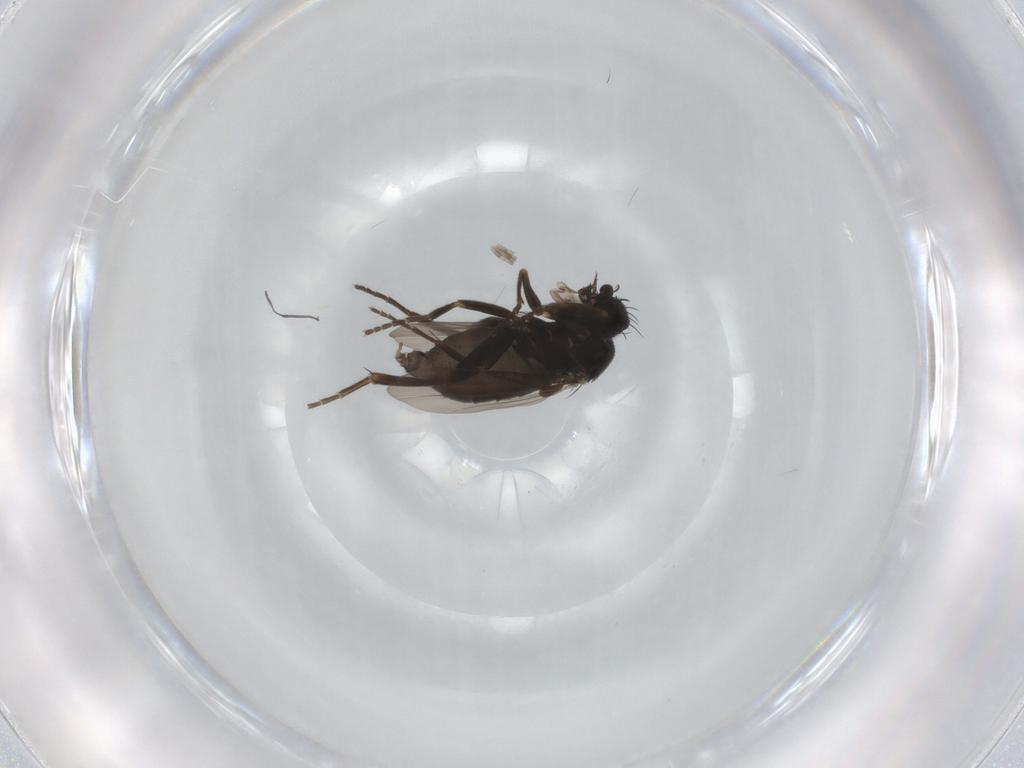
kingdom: Animalia
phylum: Arthropoda
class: Insecta
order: Diptera
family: Phoridae
